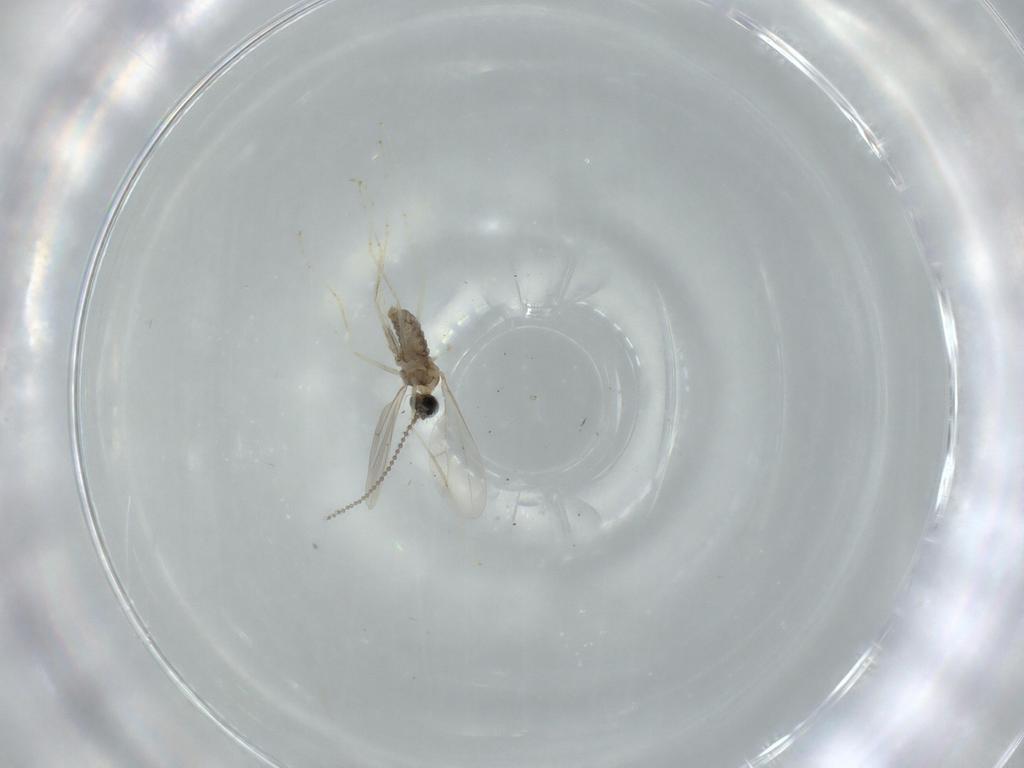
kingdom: Animalia
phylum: Arthropoda
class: Insecta
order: Diptera
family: Cecidomyiidae
